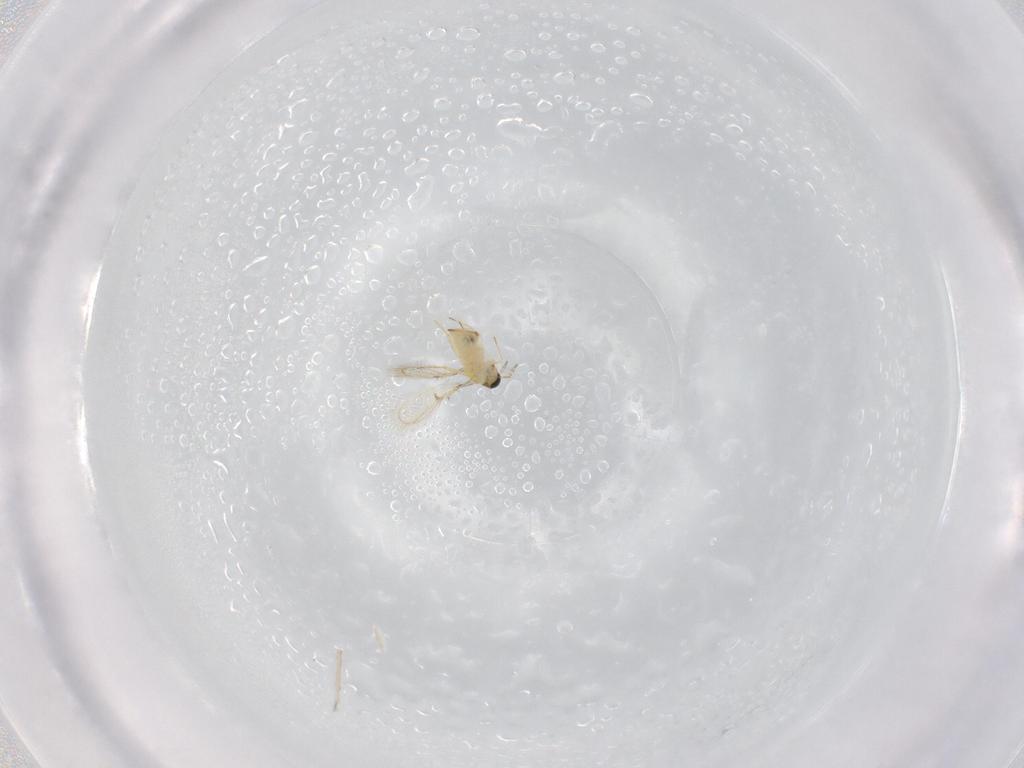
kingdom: Animalia
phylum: Arthropoda
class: Insecta
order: Hymenoptera
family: Trichogrammatidae
